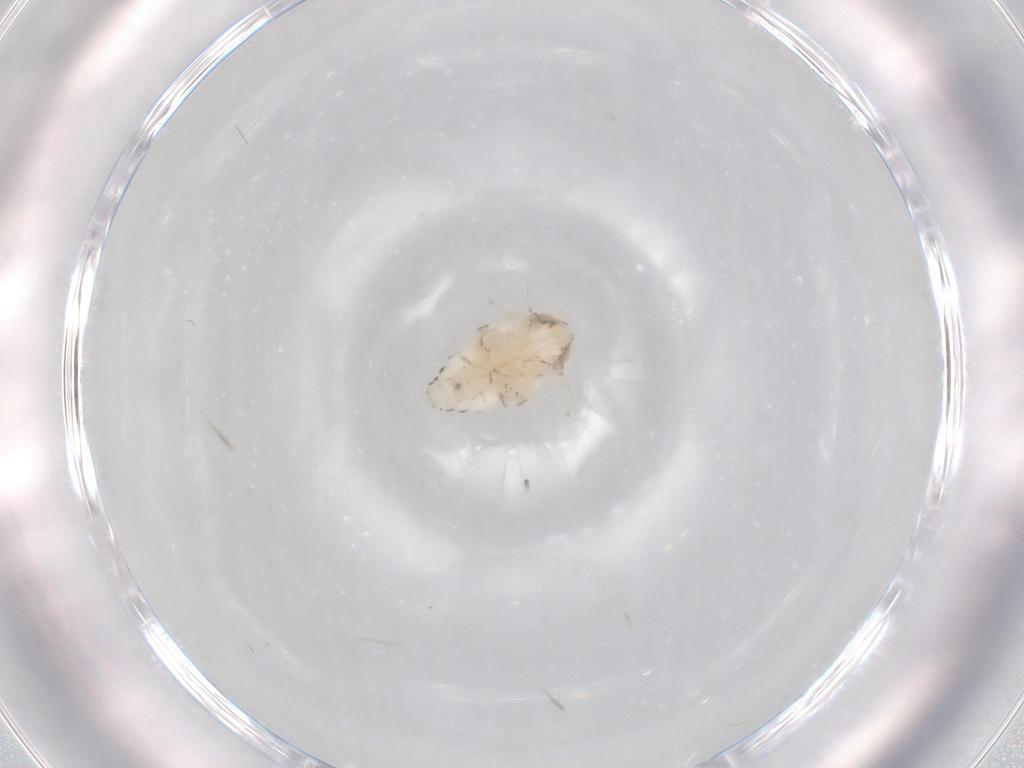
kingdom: Animalia
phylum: Arthropoda
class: Insecta
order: Hemiptera
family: Nogodinidae
